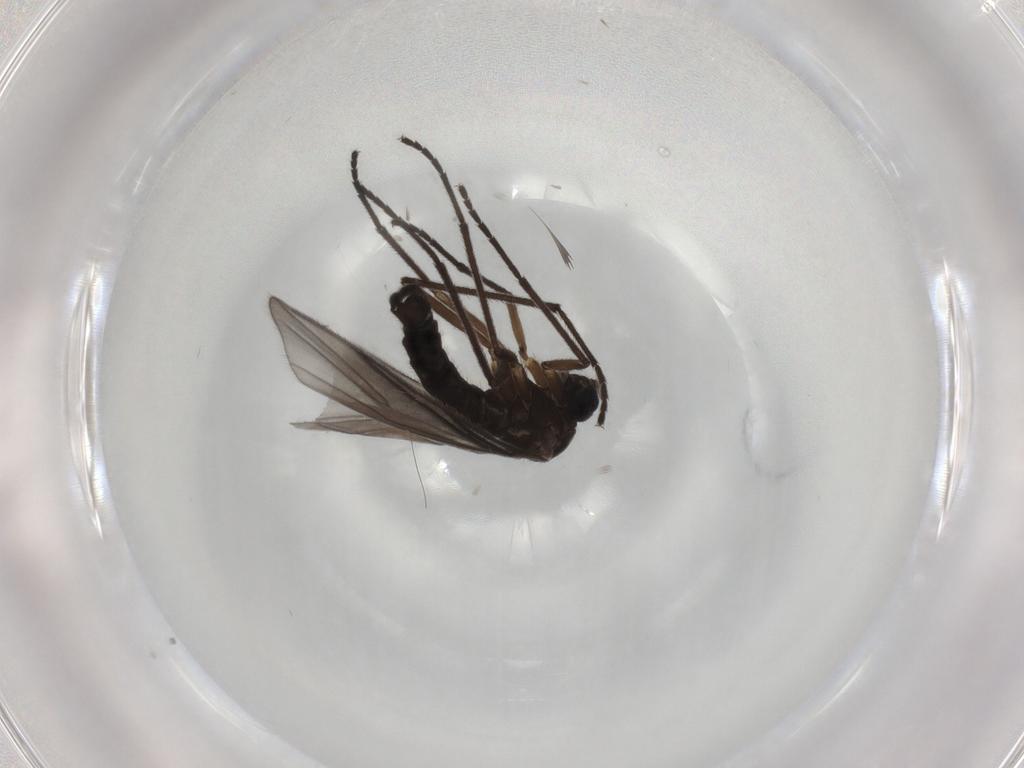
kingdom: Animalia
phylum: Arthropoda
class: Insecta
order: Diptera
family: Sciaridae
